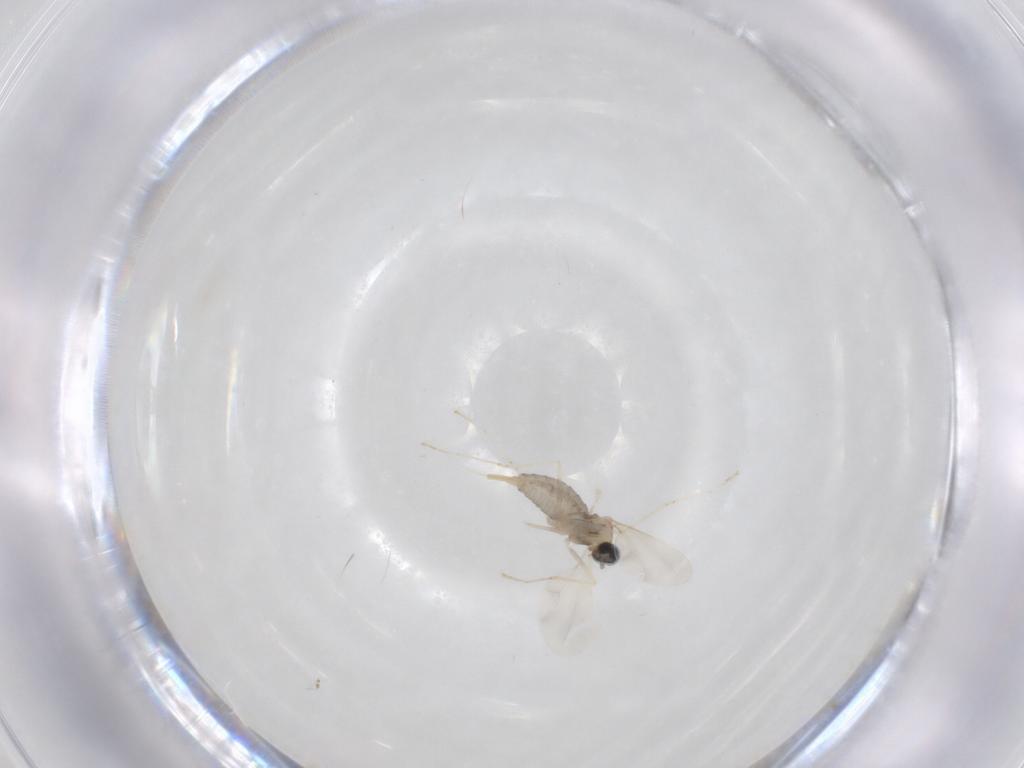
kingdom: Animalia
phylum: Arthropoda
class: Insecta
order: Diptera
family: Cecidomyiidae
